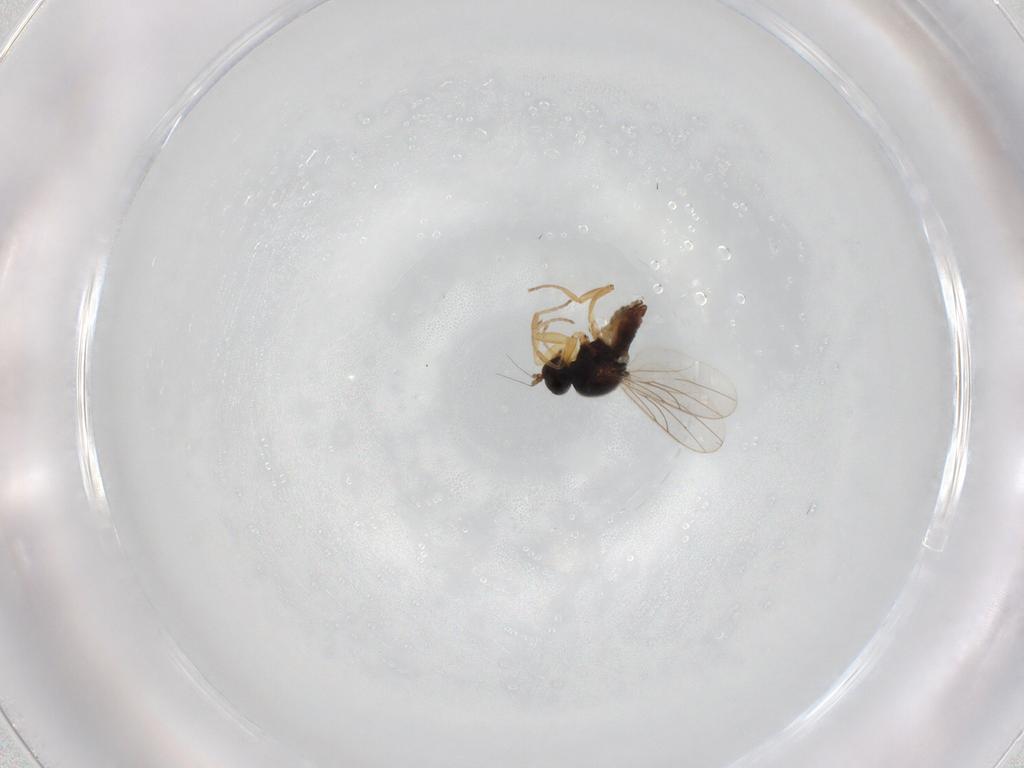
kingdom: Animalia
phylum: Arthropoda
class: Insecta
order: Diptera
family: Hybotidae
